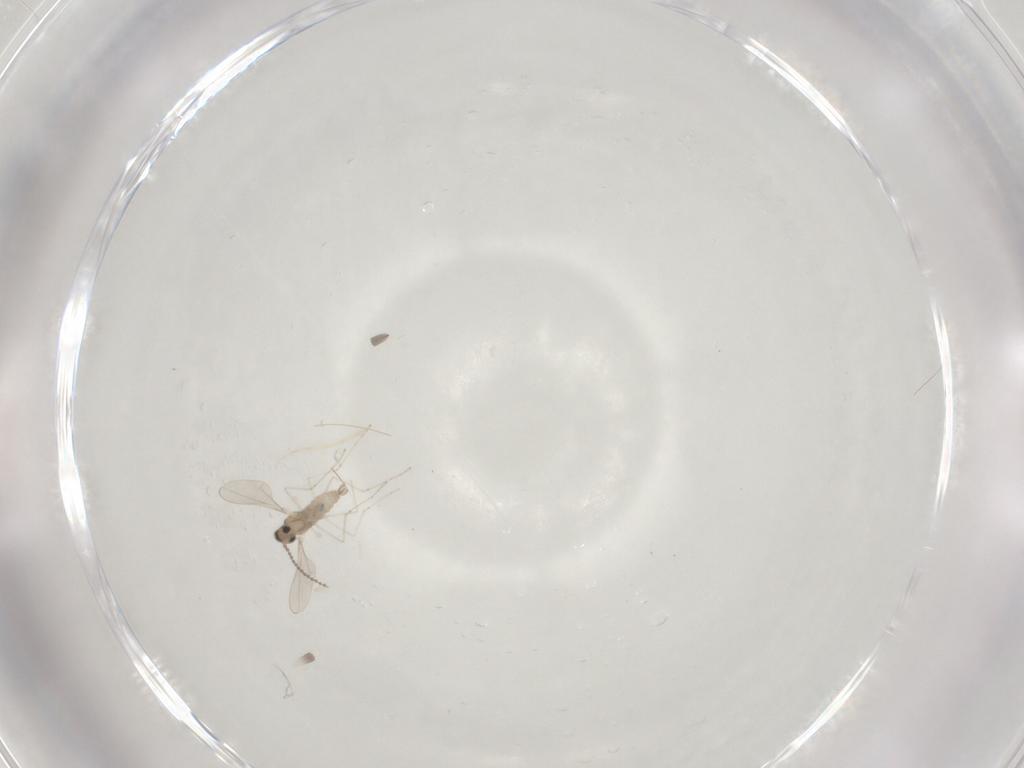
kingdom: Animalia
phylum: Arthropoda
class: Insecta
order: Diptera
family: Cecidomyiidae
